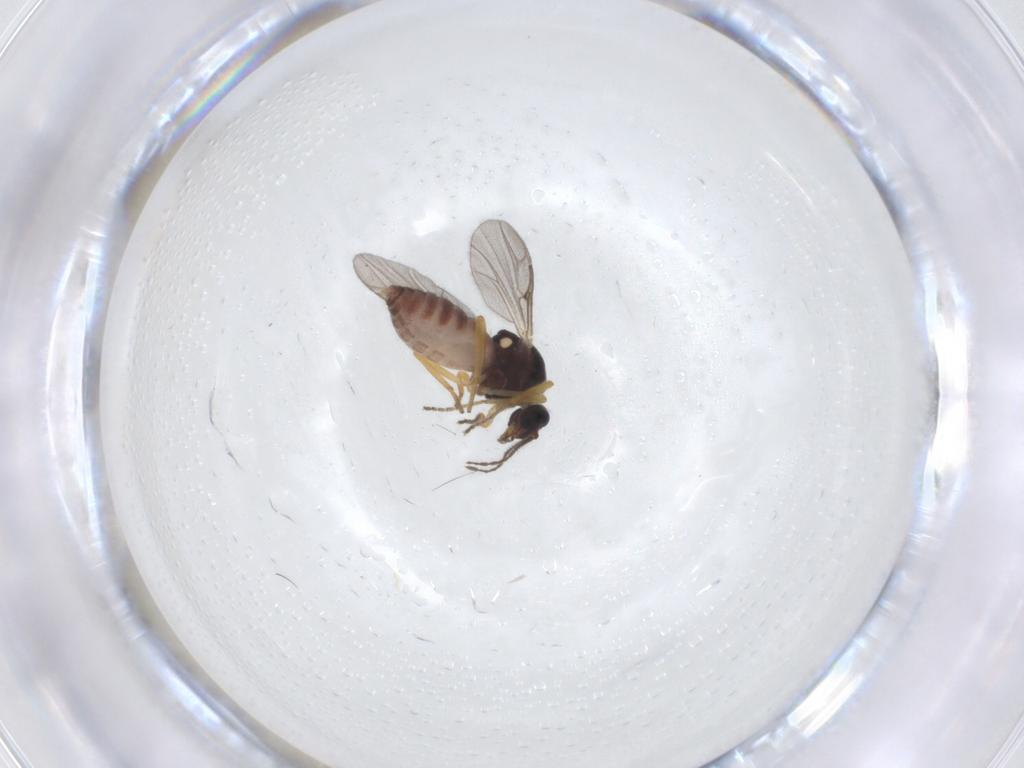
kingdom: Animalia
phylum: Arthropoda
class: Insecta
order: Diptera
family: Ceratopogonidae
